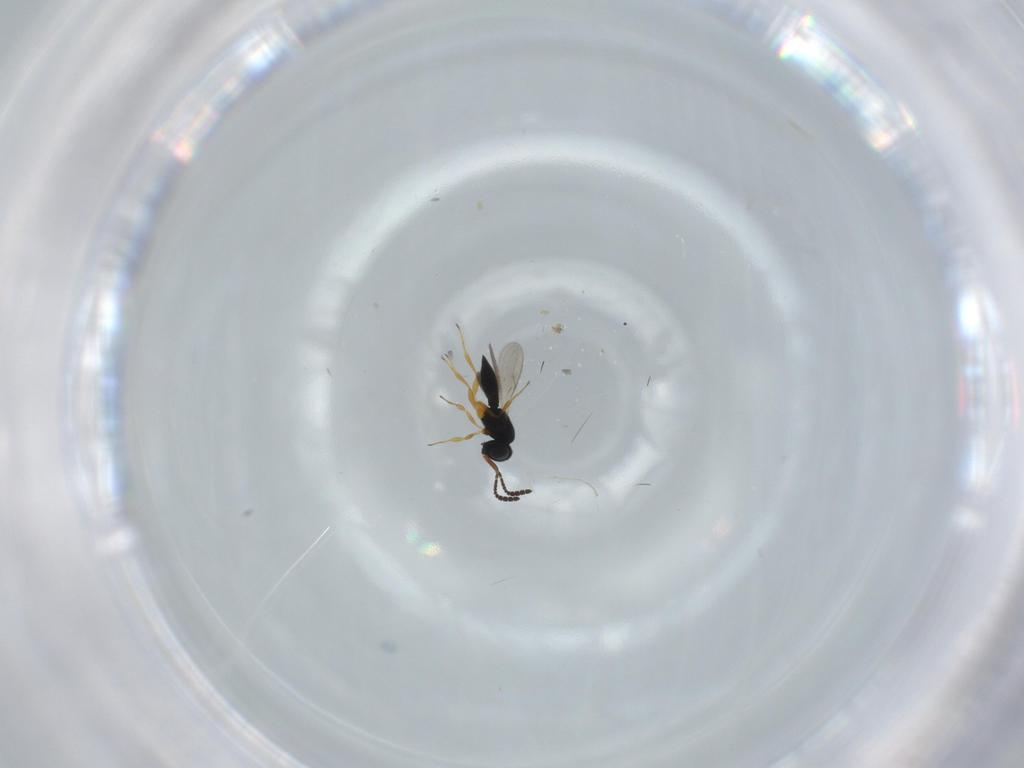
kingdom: Animalia
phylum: Arthropoda
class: Insecta
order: Hymenoptera
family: Scelionidae
